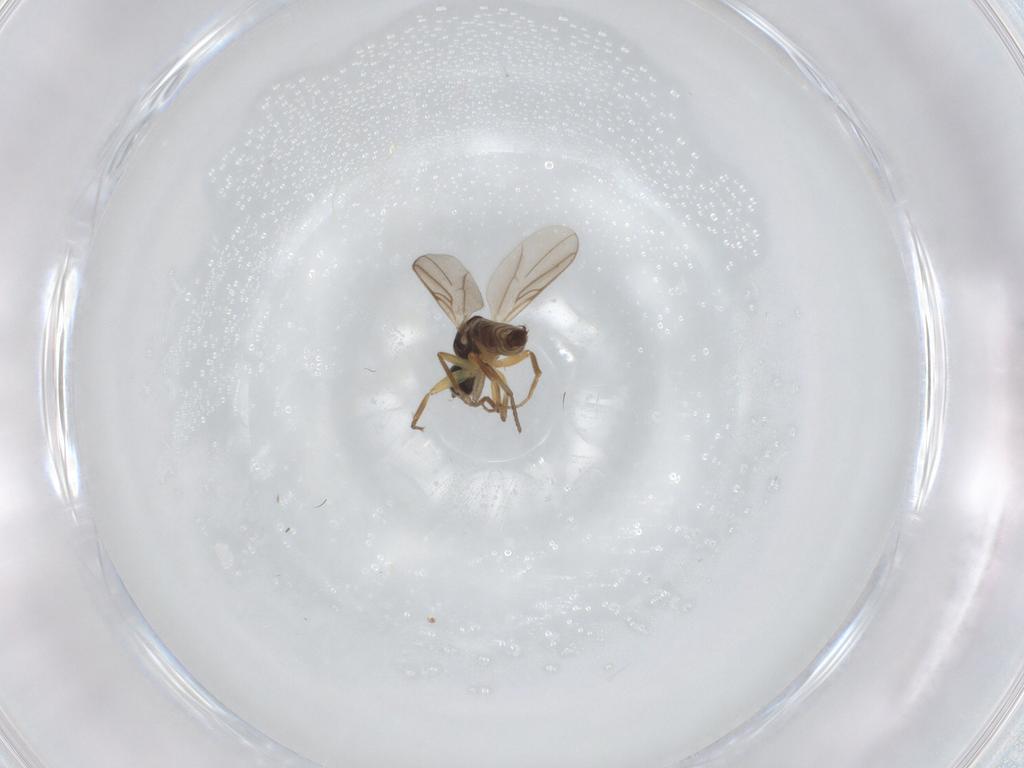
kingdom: Animalia
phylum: Arthropoda
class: Insecta
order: Diptera
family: Hybotidae
